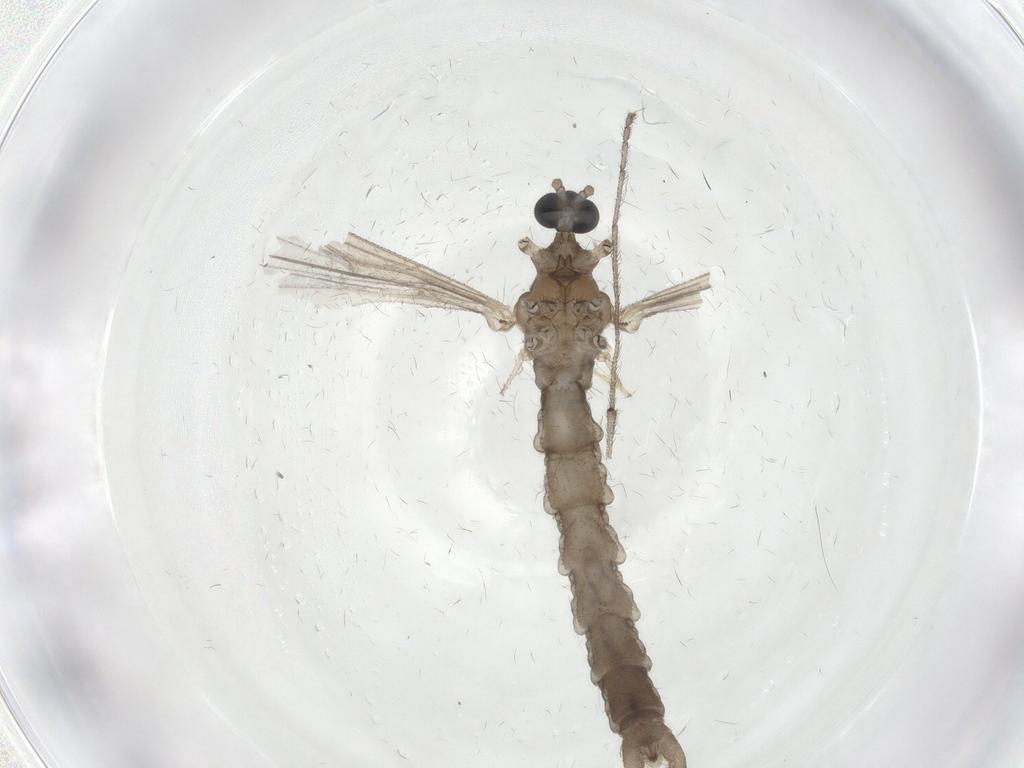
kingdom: Animalia
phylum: Arthropoda
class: Insecta
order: Diptera
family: Limoniidae
